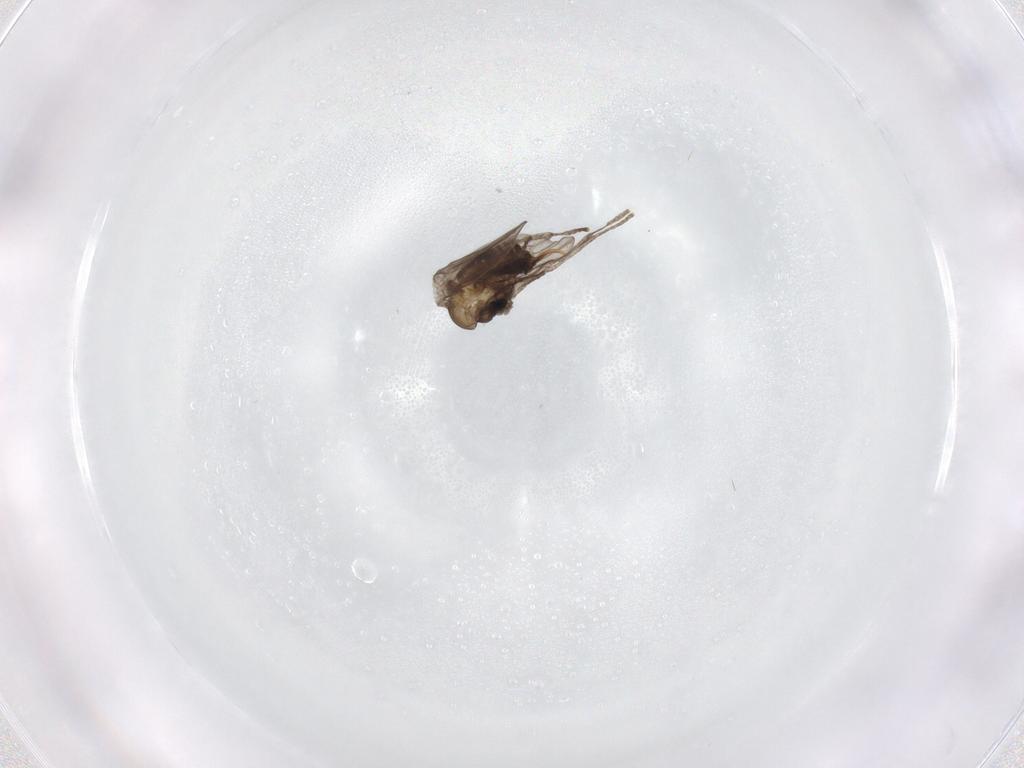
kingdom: Animalia
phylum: Arthropoda
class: Insecta
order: Diptera
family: Psychodidae
